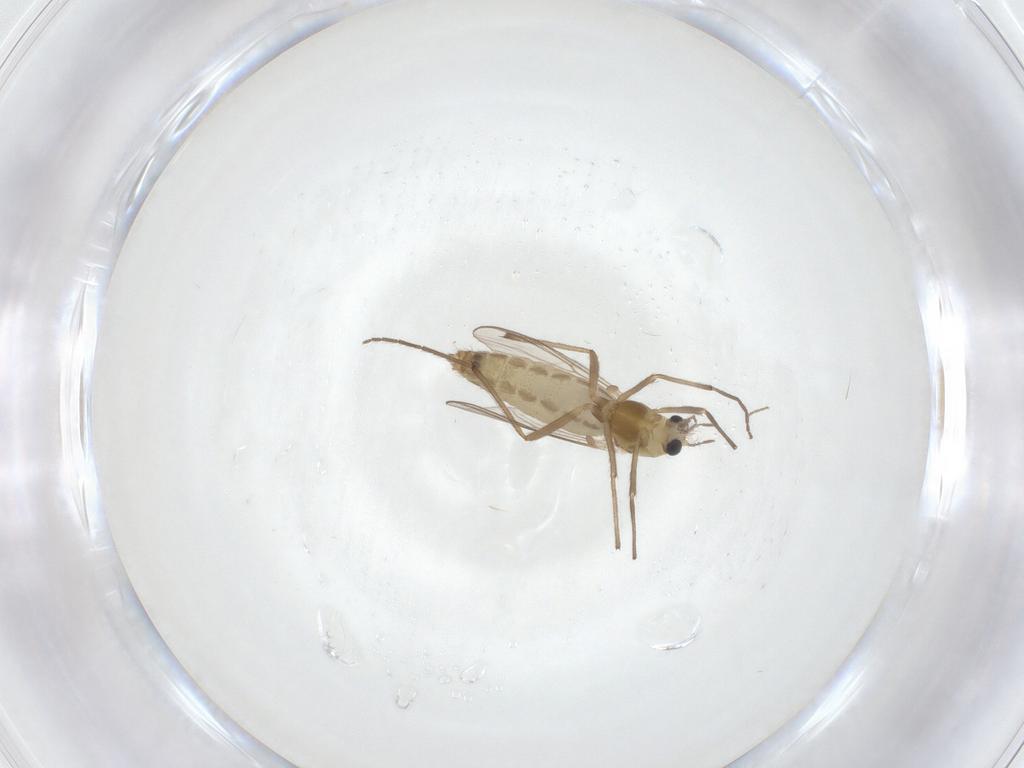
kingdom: Animalia
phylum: Arthropoda
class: Insecta
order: Diptera
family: Chironomidae
